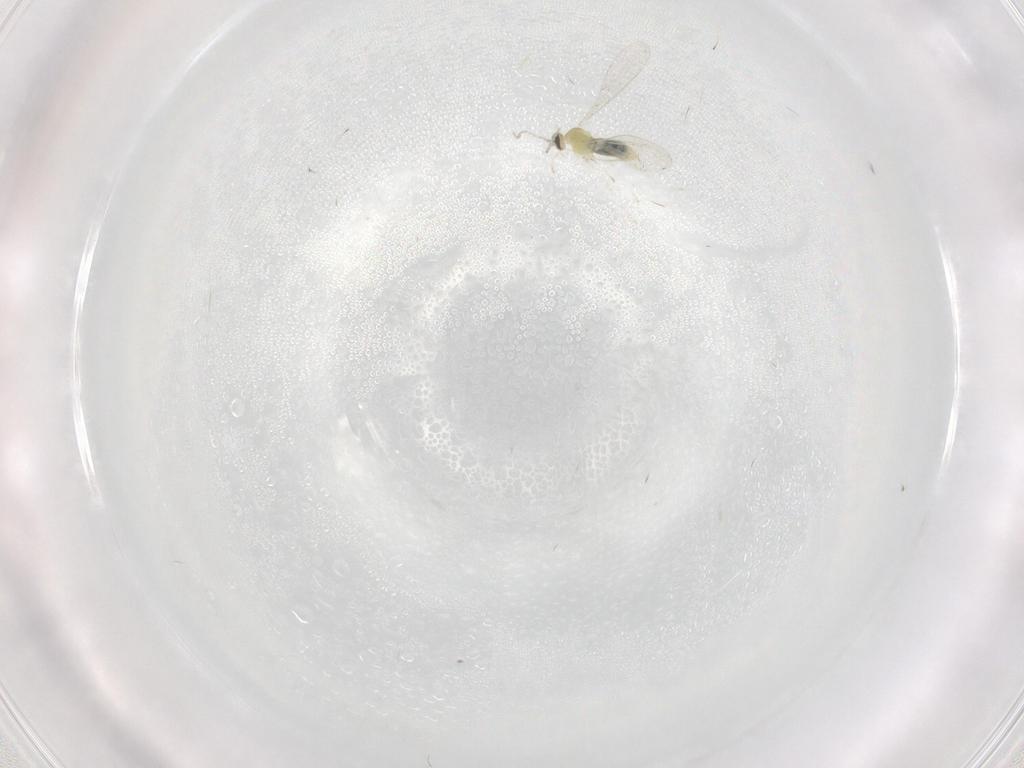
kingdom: Animalia
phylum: Arthropoda
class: Insecta
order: Diptera
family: Cecidomyiidae
